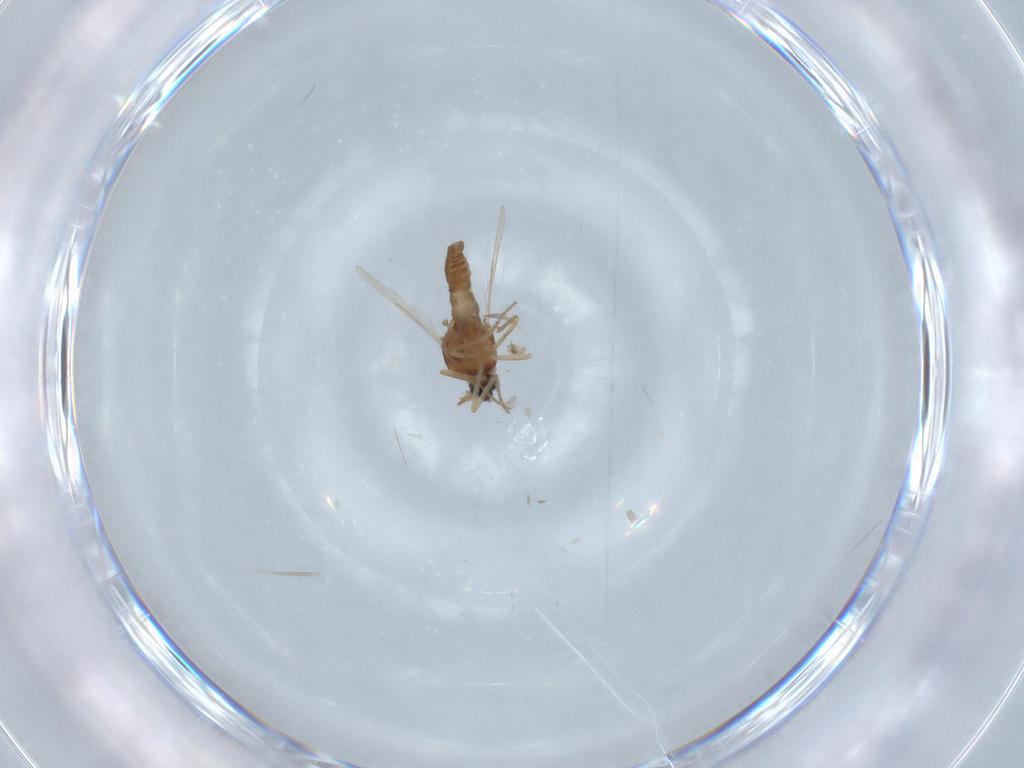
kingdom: Animalia
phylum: Arthropoda
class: Insecta
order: Diptera
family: Ceratopogonidae
